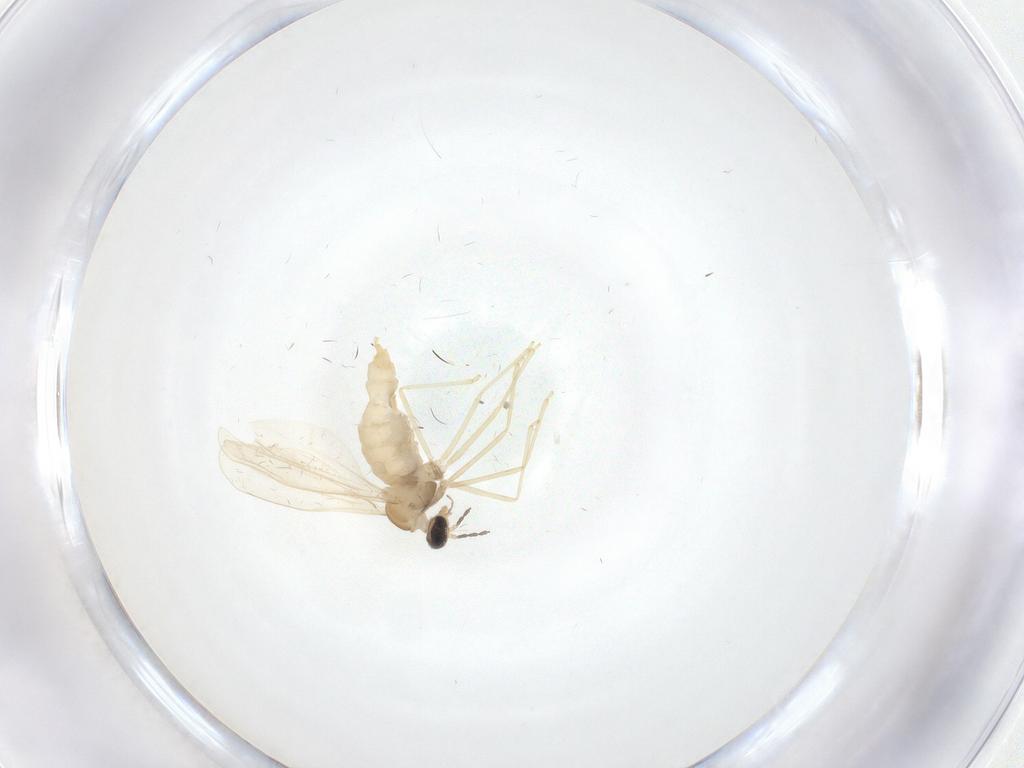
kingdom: Animalia
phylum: Arthropoda
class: Insecta
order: Diptera
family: Cecidomyiidae
